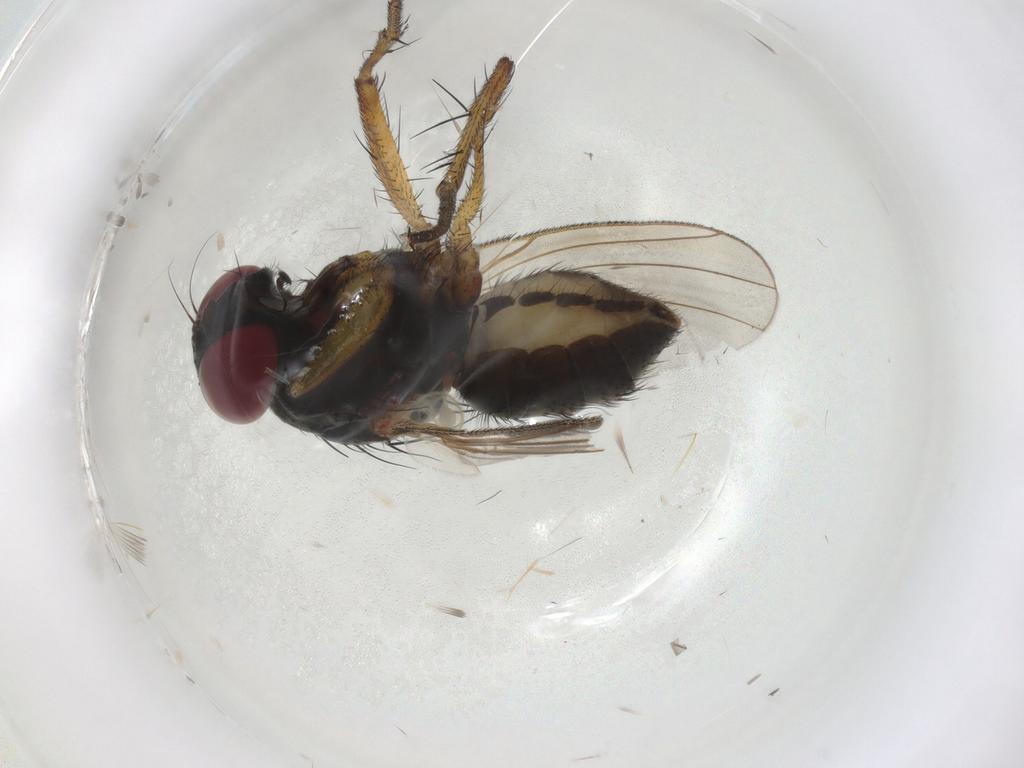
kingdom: Animalia
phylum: Arthropoda
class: Insecta
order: Diptera
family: Muscidae
